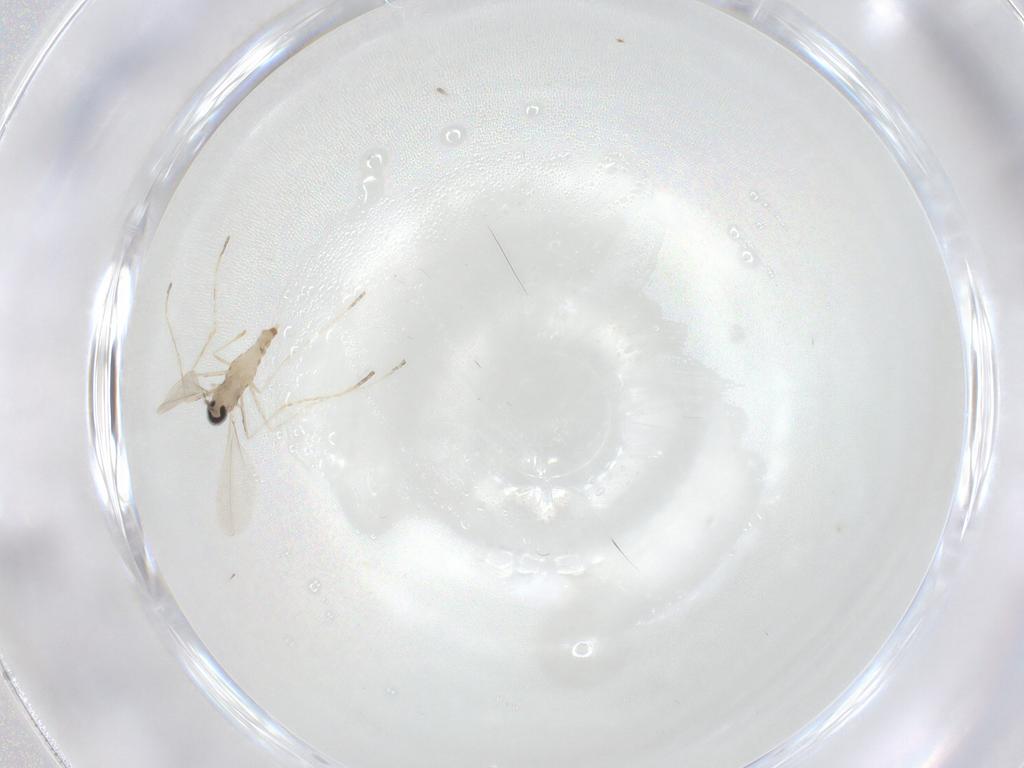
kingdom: Animalia
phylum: Arthropoda
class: Insecta
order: Diptera
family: Cecidomyiidae
